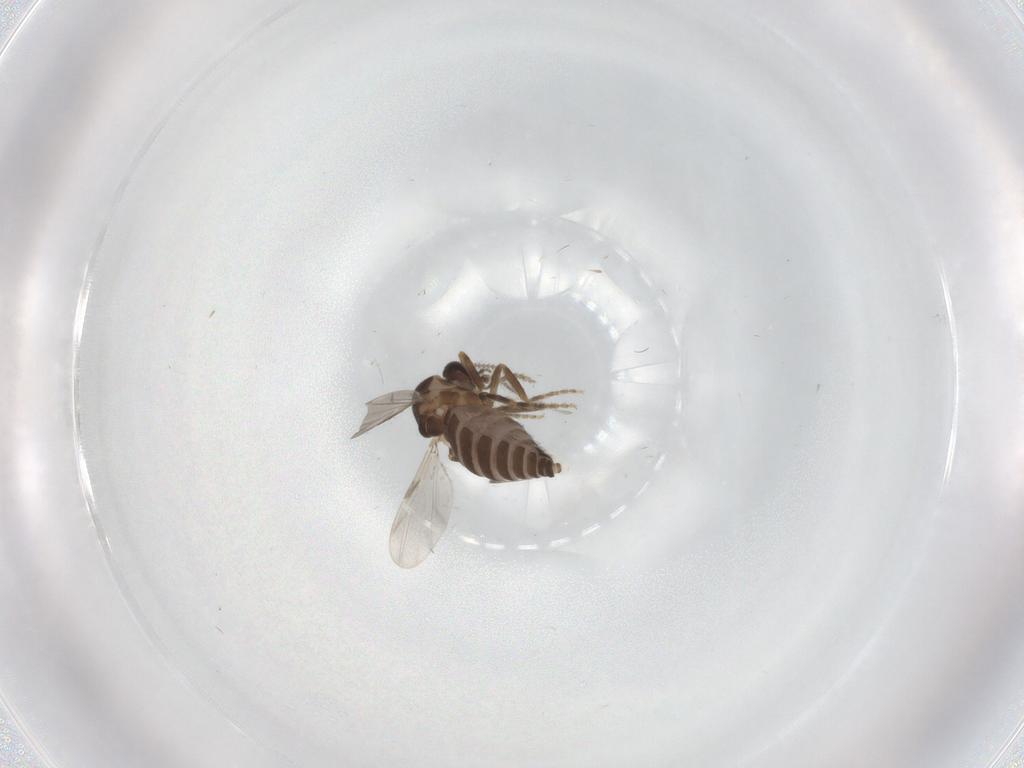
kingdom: Animalia
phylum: Arthropoda
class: Insecta
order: Diptera
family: Ceratopogonidae
